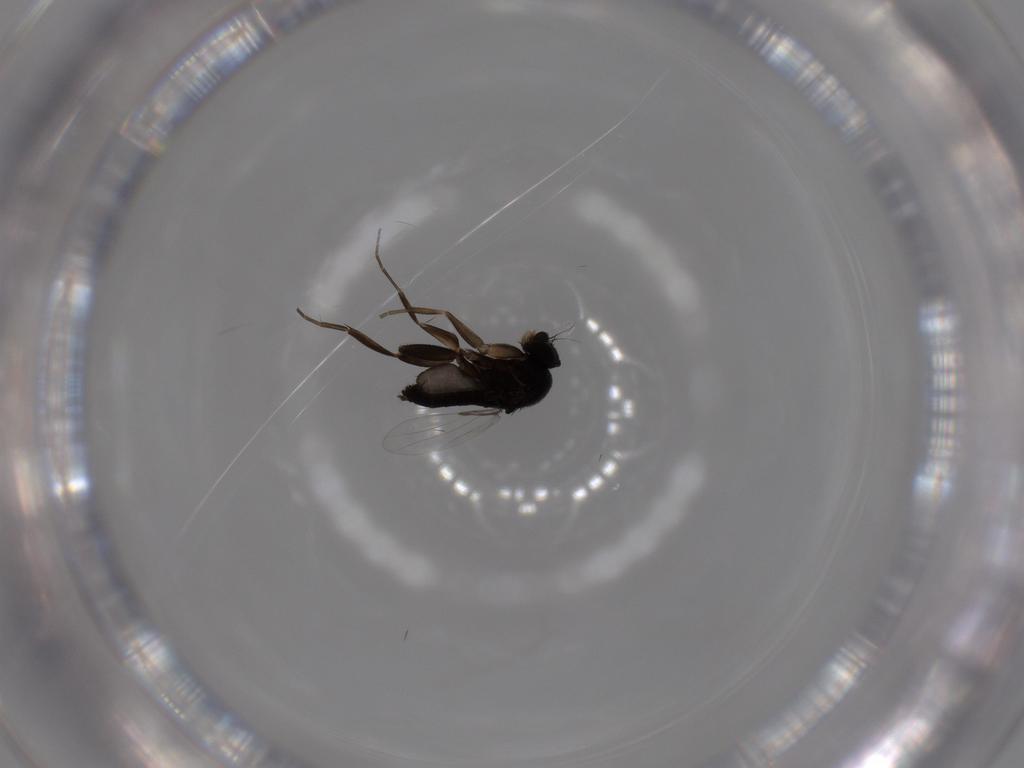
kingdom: Animalia
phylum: Arthropoda
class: Insecta
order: Diptera
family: Phoridae
